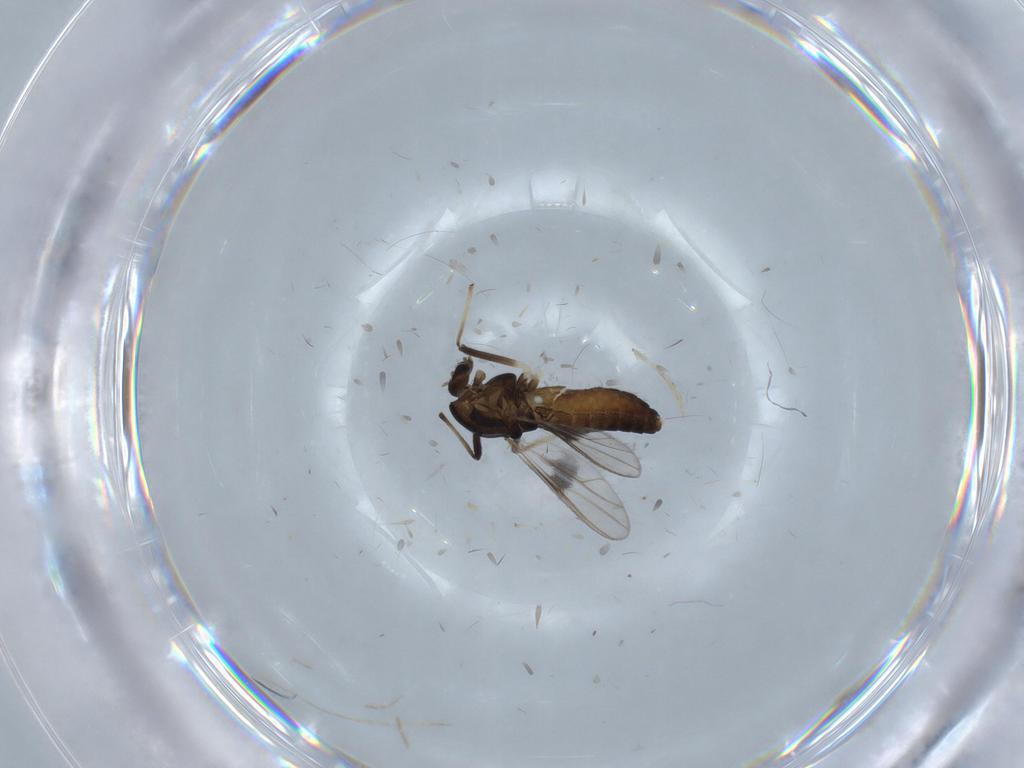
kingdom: Animalia
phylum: Arthropoda
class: Insecta
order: Diptera
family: Chironomidae
